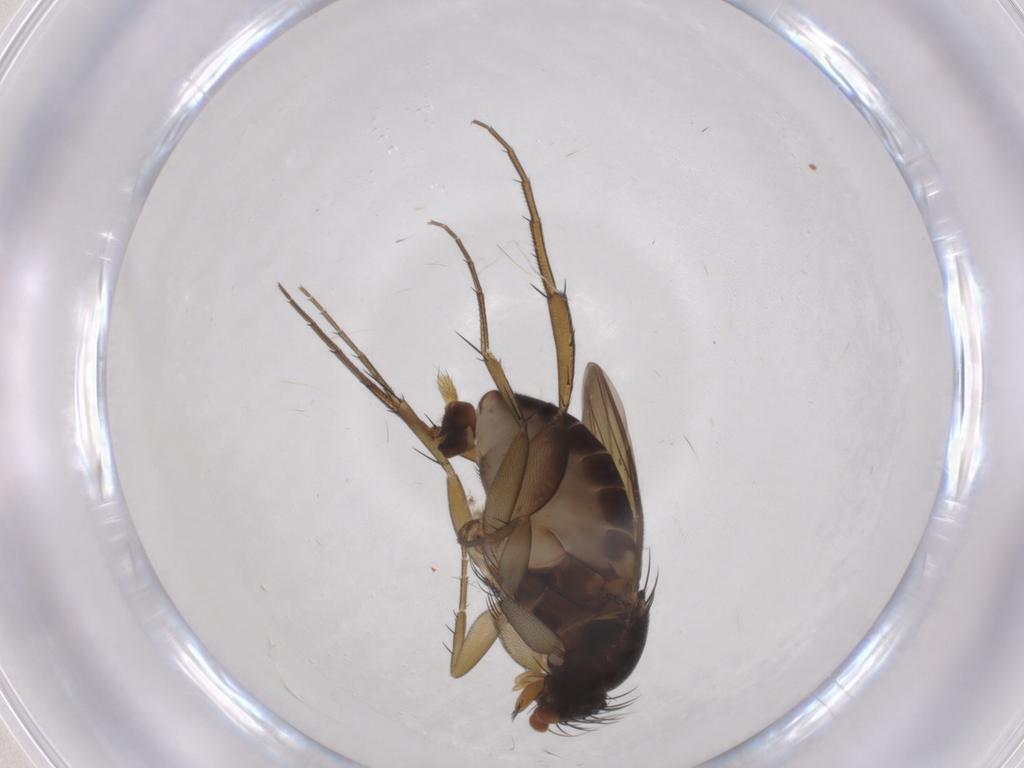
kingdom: Animalia
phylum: Arthropoda
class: Insecta
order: Diptera
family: Phoridae
